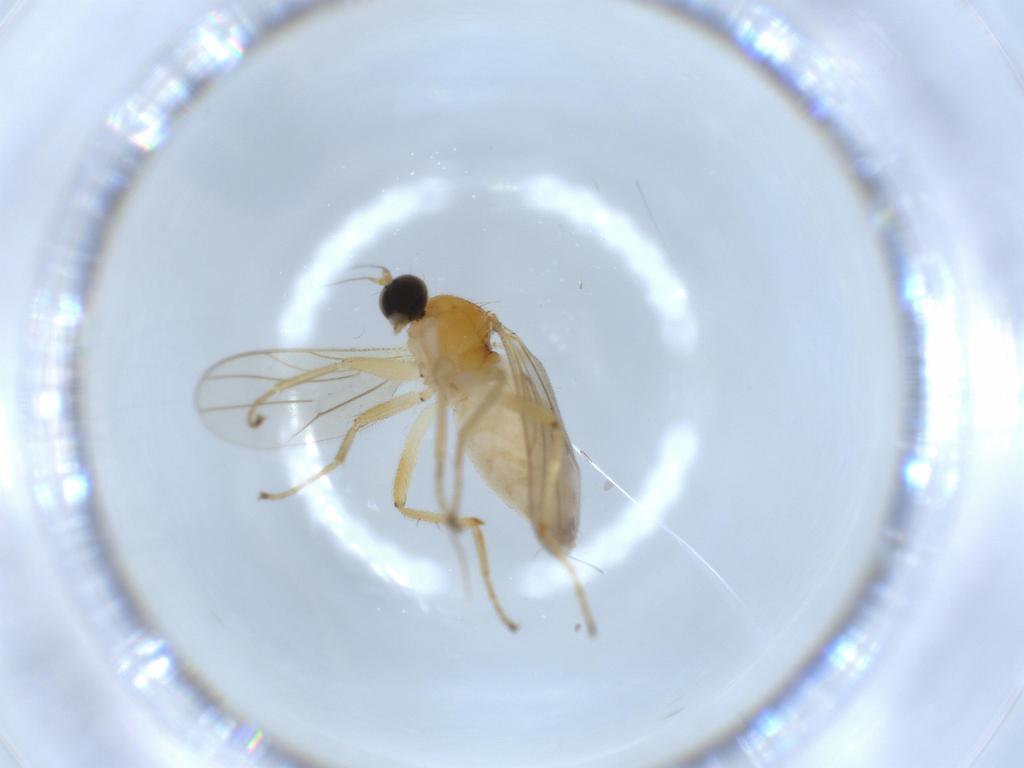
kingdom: Animalia
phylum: Arthropoda
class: Insecta
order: Diptera
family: Hybotidae
